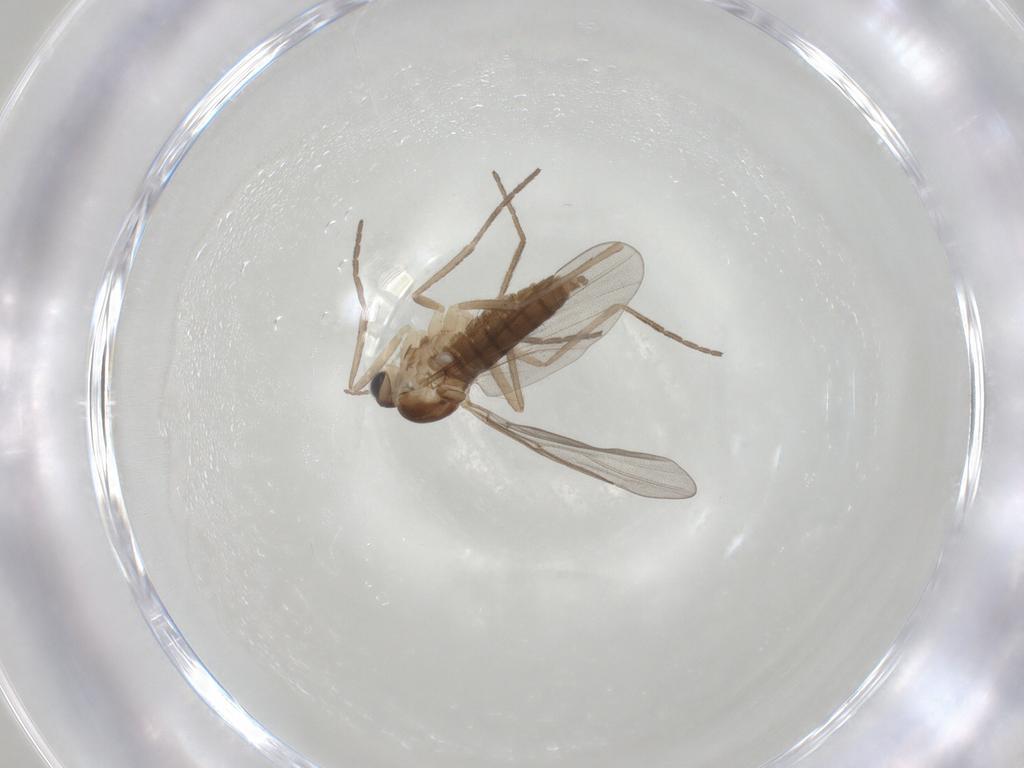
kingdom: Animalia
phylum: Arthropoda
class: Insecta
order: Diptera
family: Cecidomyiidae
